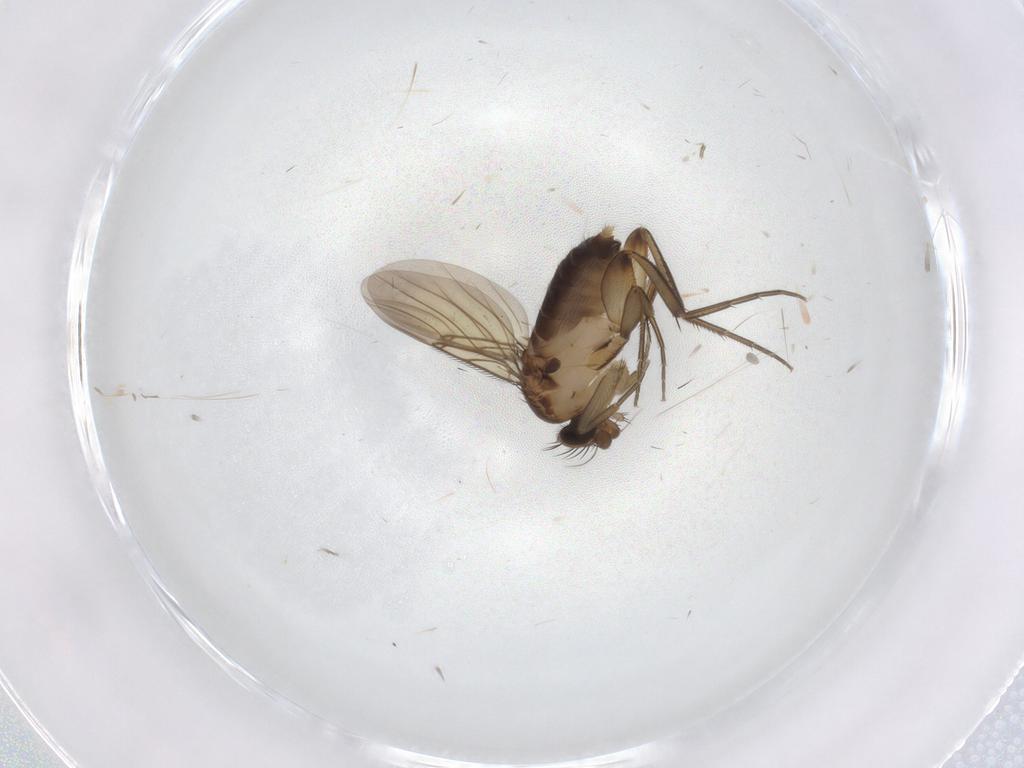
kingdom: Animalia
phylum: Arthropoda
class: Insecta
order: Diptera
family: Phoridae
